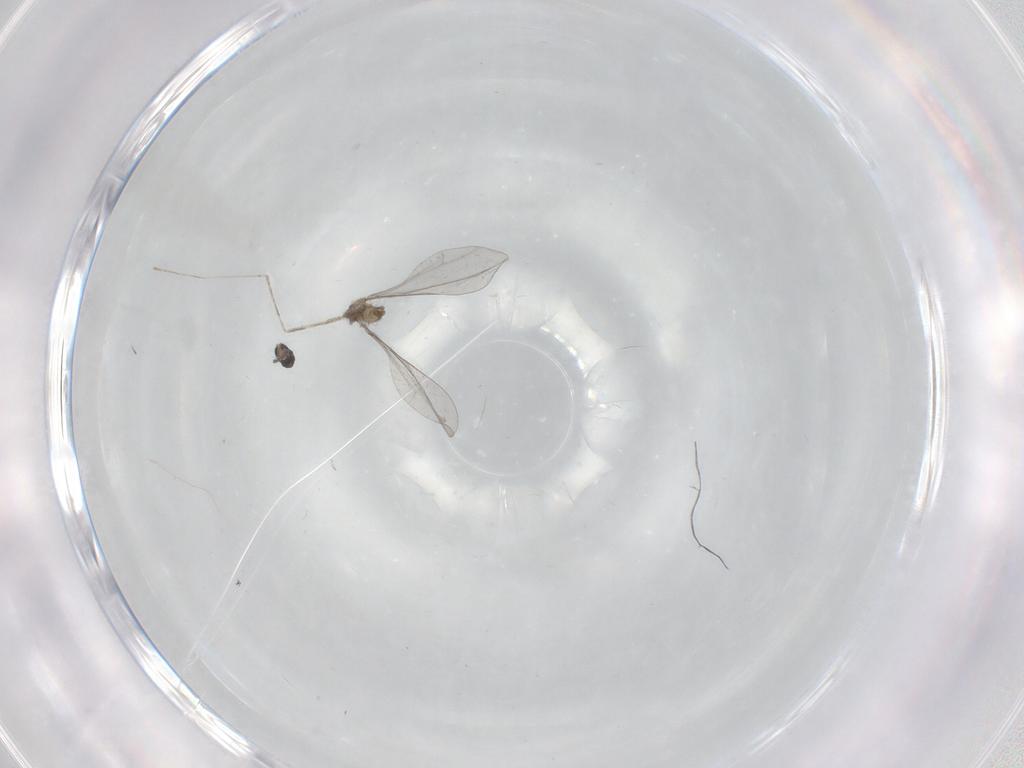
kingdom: Animalia
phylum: Arthropoda
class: Insecta
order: Diptera
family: Cecidomyiidae
